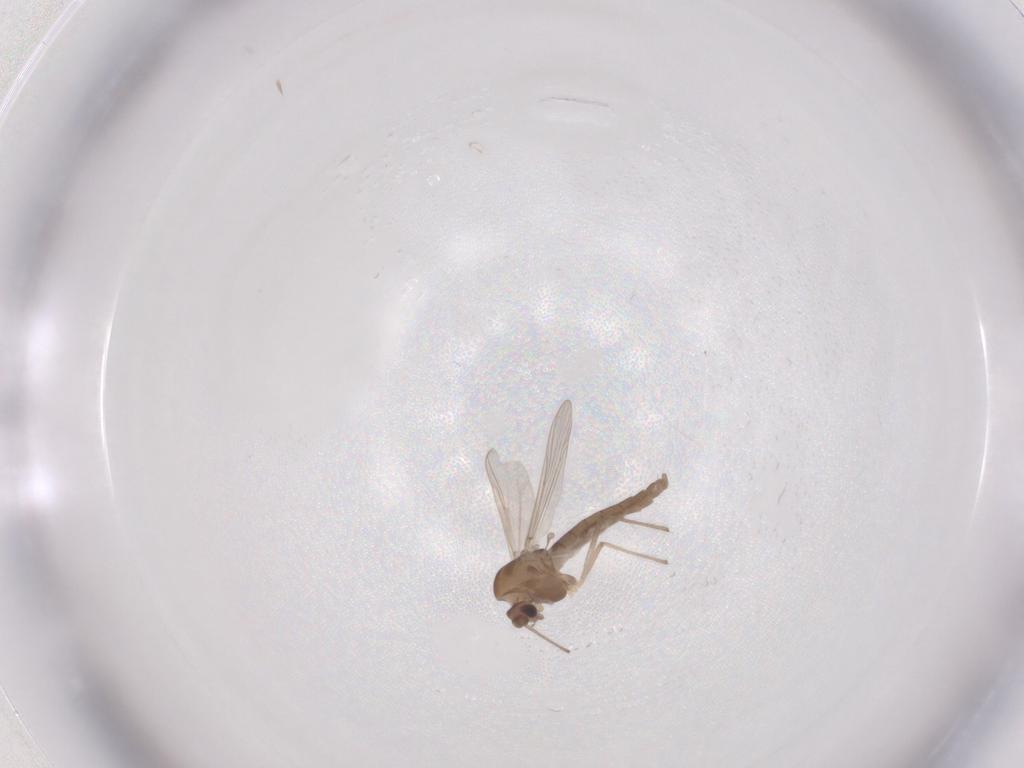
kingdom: Animalia
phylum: Arthropoda
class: Insecta
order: Diptera
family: Chironomidae
